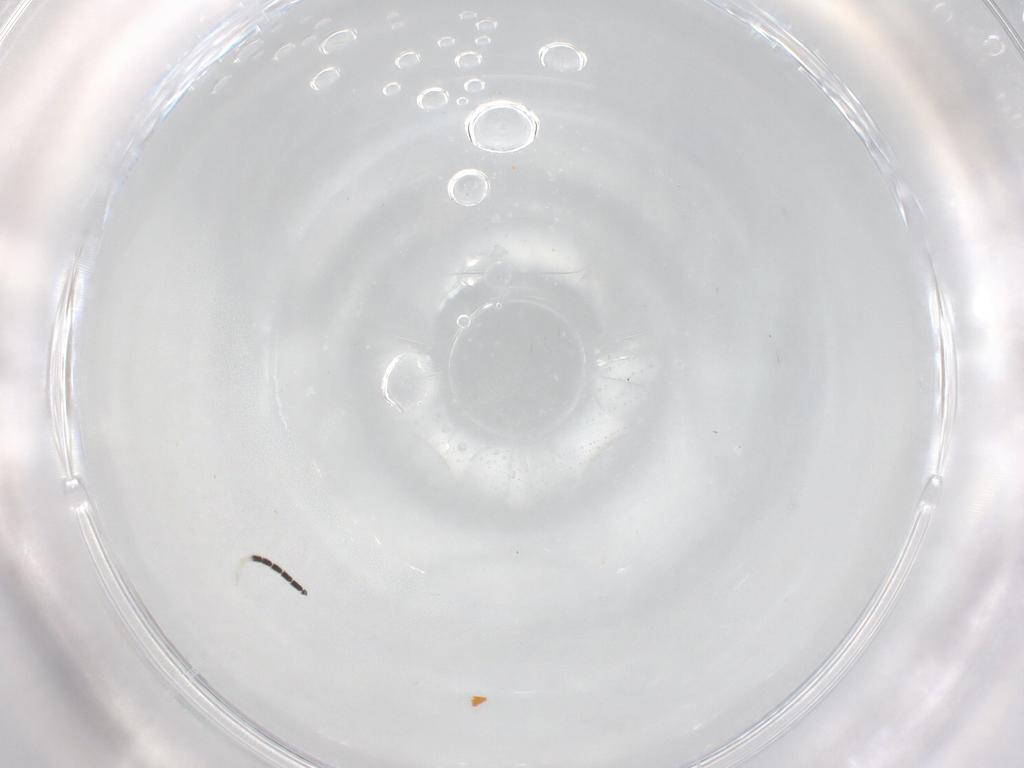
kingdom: Animalia
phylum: Arthropoda
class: Insecta
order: Diptera
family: Sciaridae
